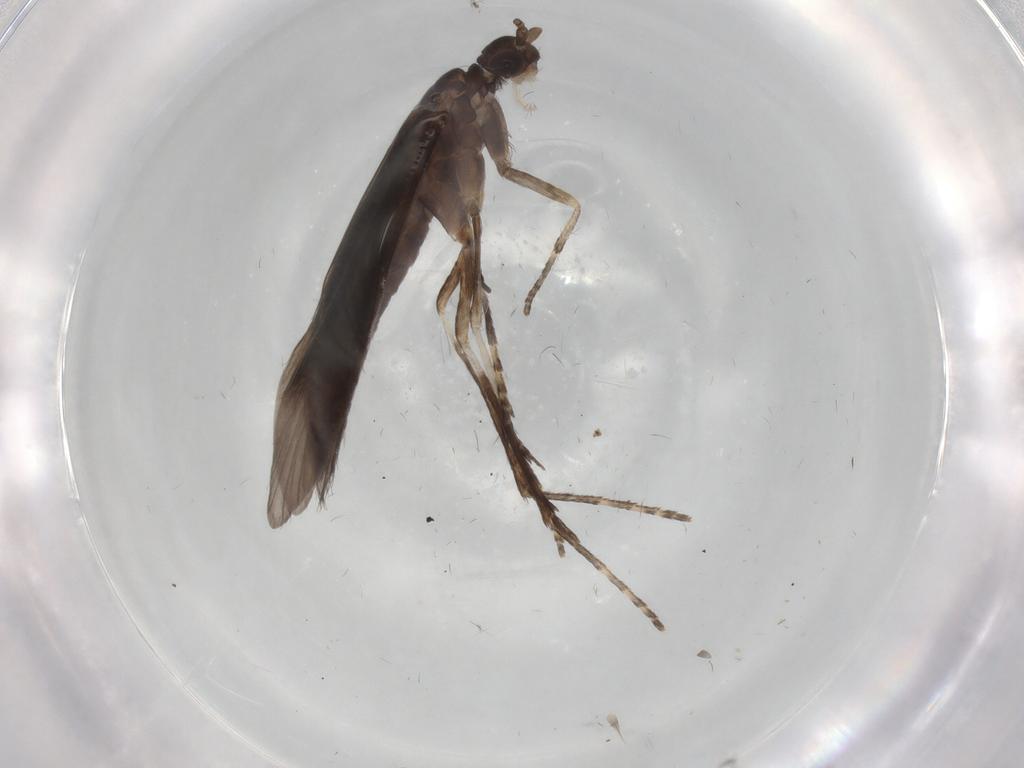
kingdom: Animalia
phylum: Arthropoda
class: Insecta
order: Trichoptera
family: Xiphocentronidae
